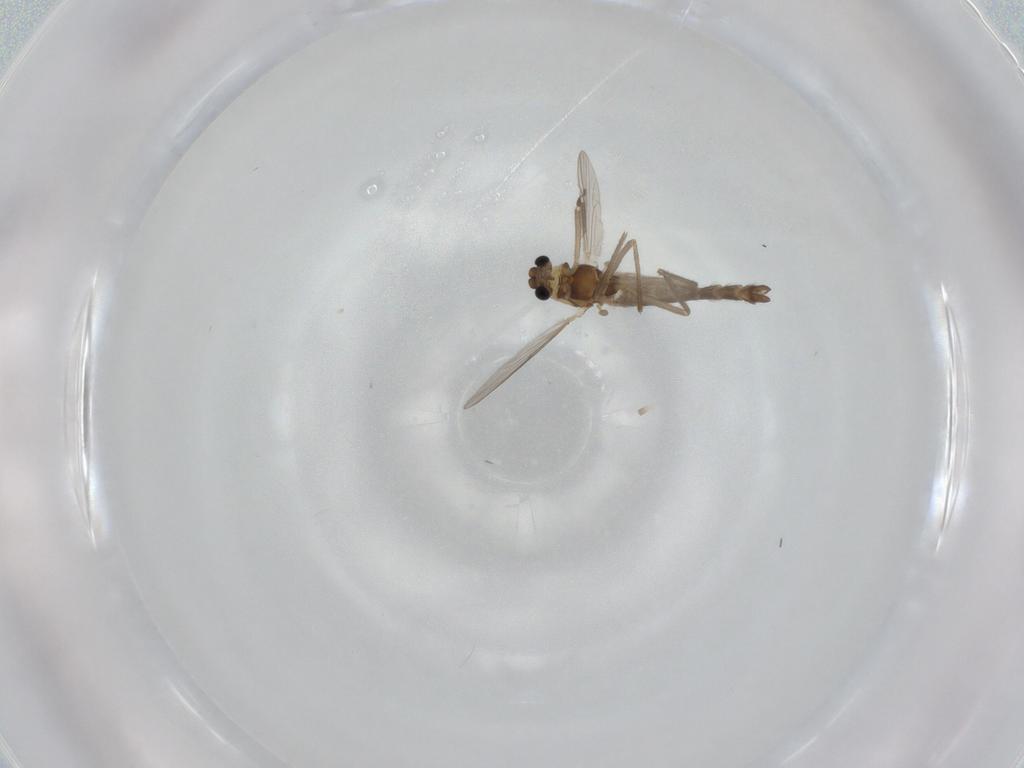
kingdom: Animalia
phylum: Arthropoda
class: Insecta
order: Diptera
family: Chironomidae
